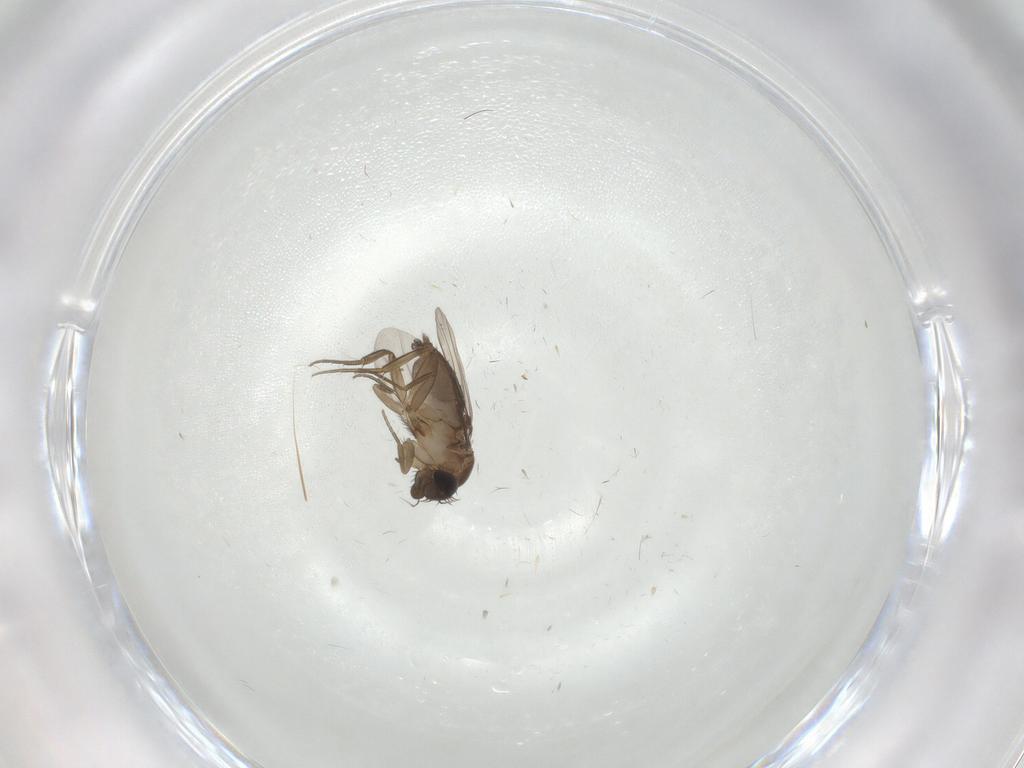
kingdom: Animalia
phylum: Arthropoda
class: Insecta
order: Diptera
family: Phoridae
